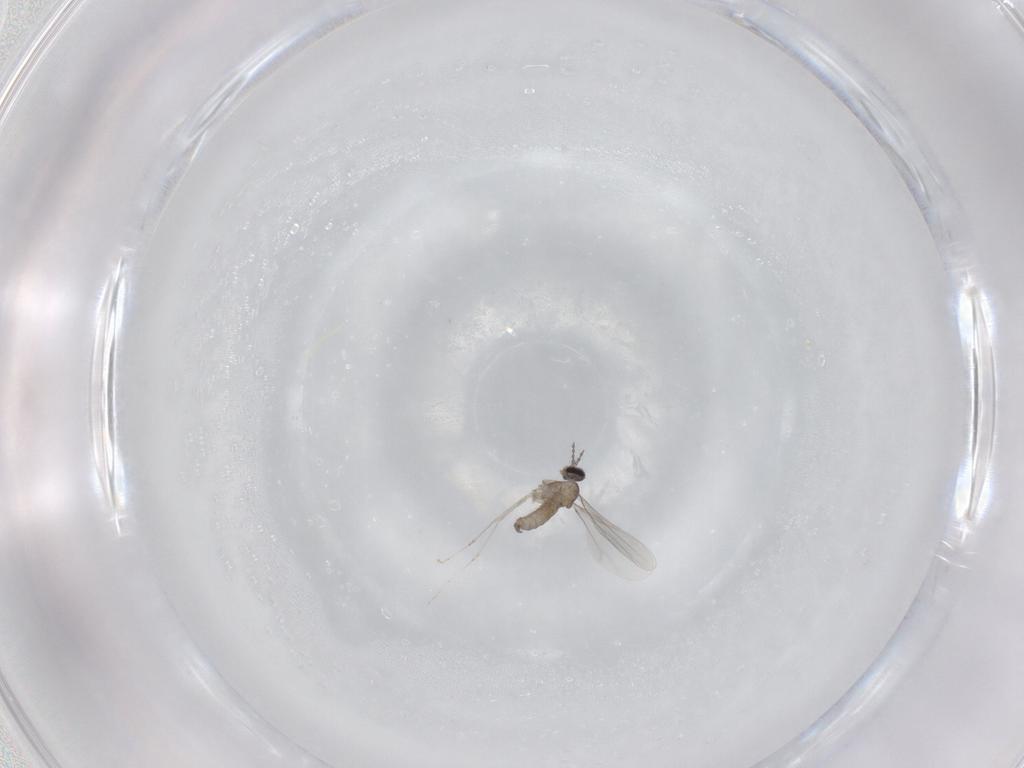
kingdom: Animalia
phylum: Arthropoda
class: Insecta
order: Diptera
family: Cecidomyiidae
